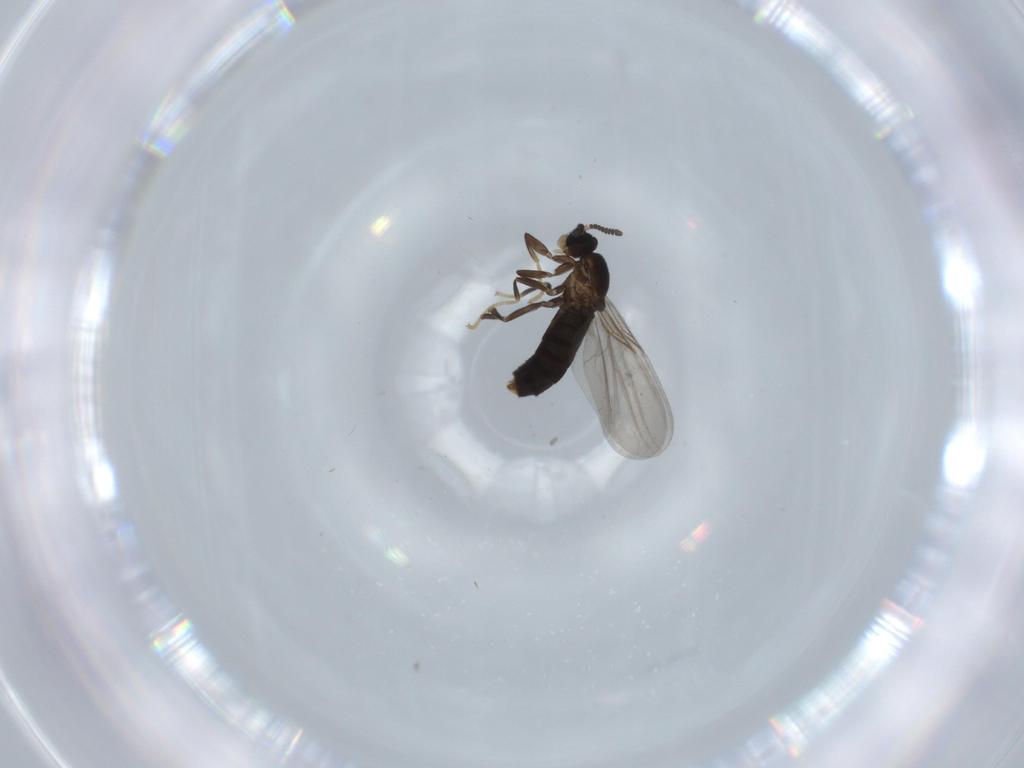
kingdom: Animalia
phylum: Arthropoda
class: Insecta
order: Diptera
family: Scatopsidae
